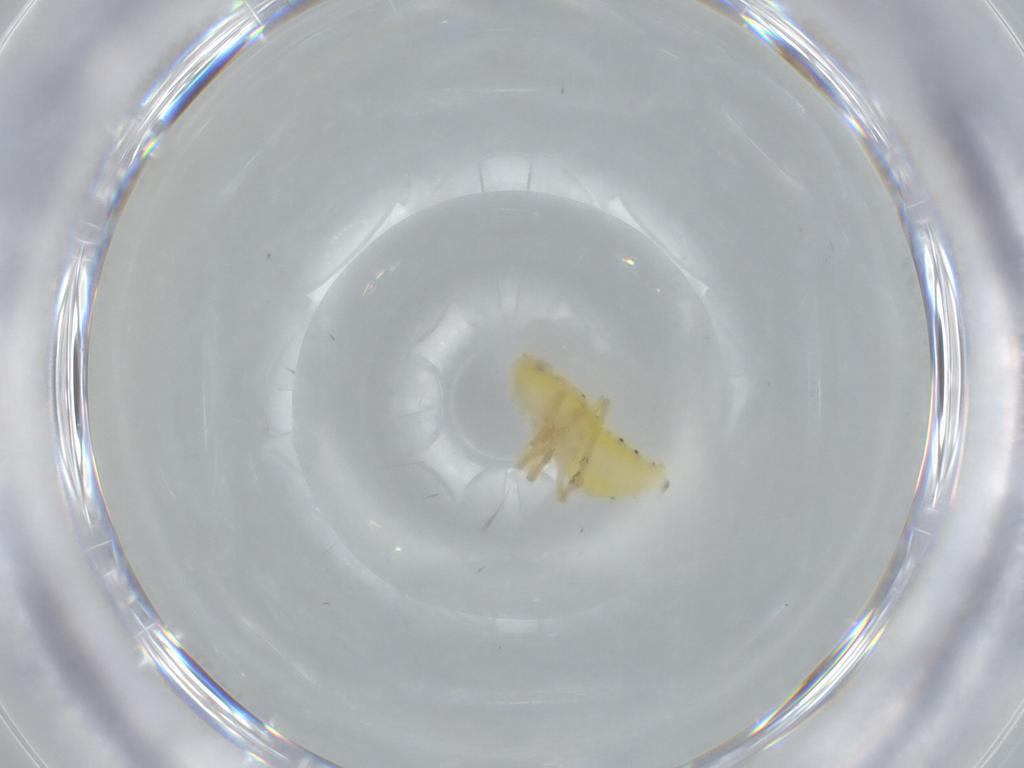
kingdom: Animalia
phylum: Arthropoda
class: Insecta
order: Hemiptera
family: Tropiduchidae
